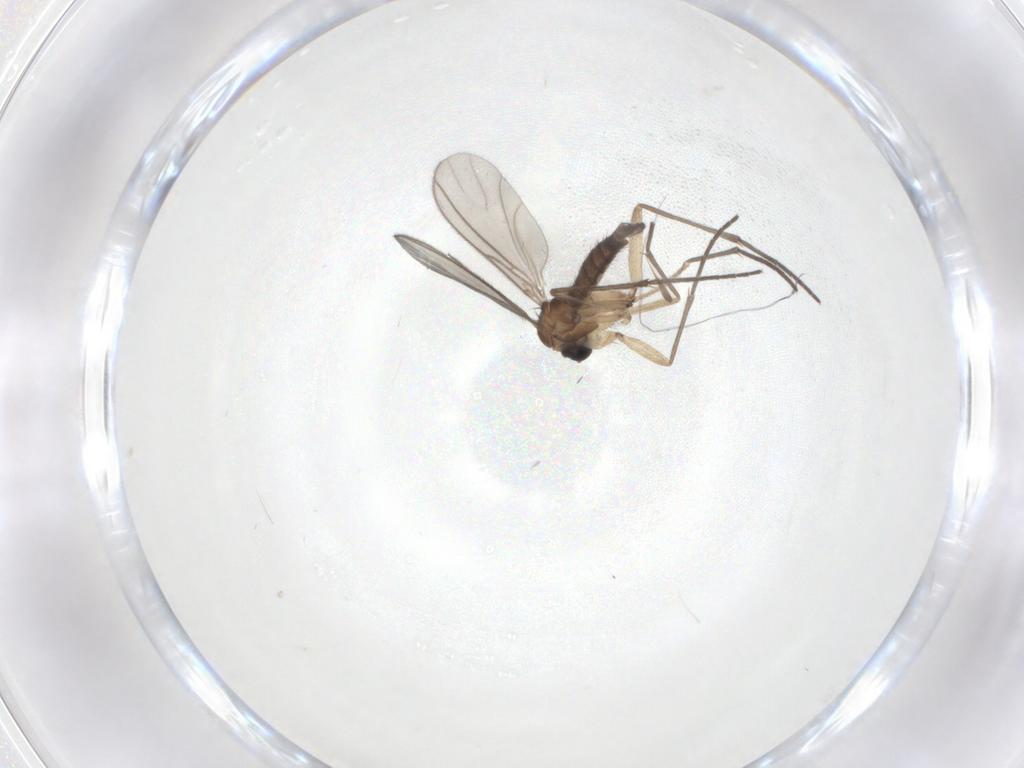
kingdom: Animalia
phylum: Arthropoda
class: Insecta
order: Diptera
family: Sciaridae
